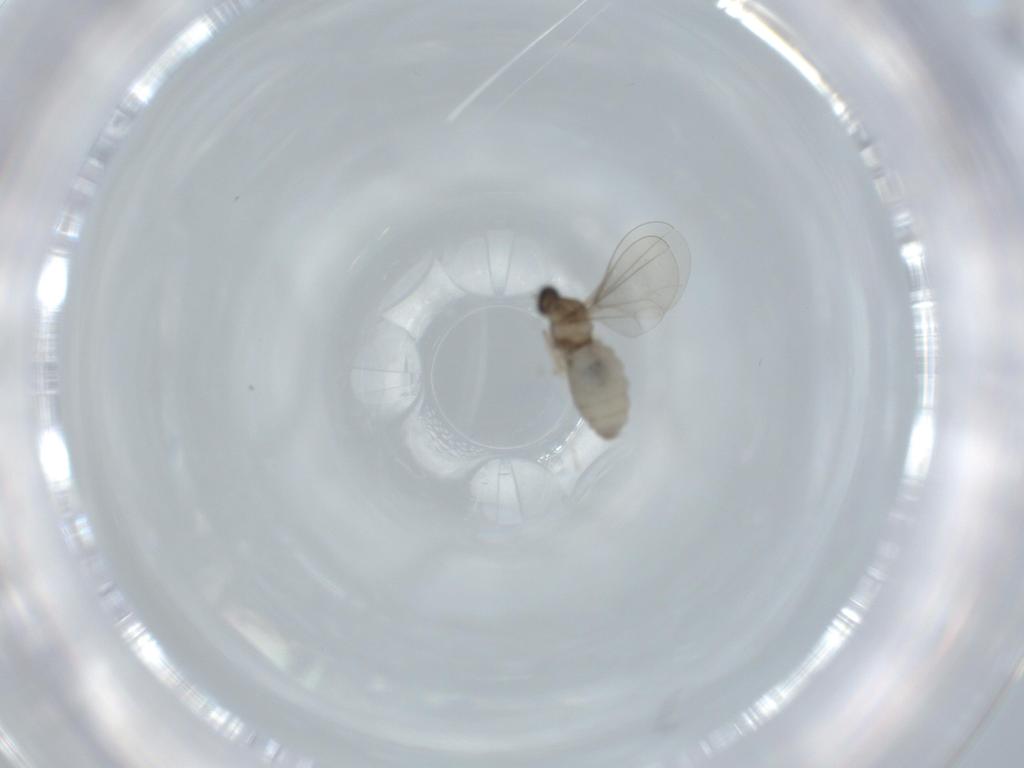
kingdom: Animalia
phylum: Arthropoda
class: Insecta
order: Diptera
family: Cecidomyiidae
